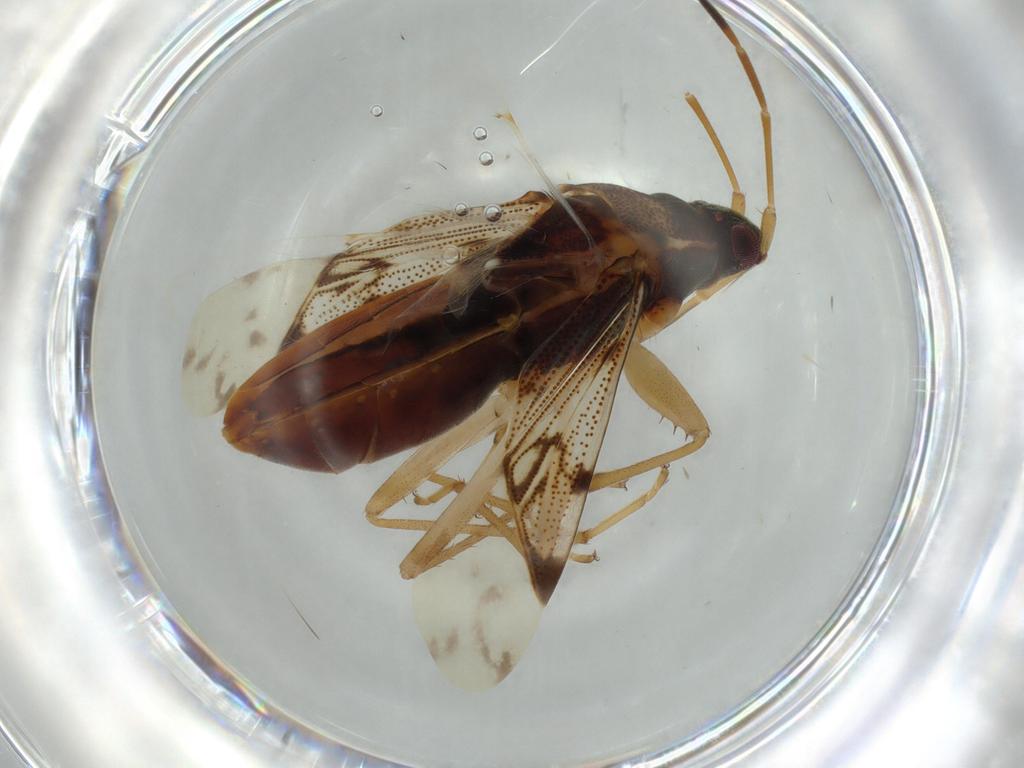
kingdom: Animalia
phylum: Arthropoda
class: Insecta
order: Hemiptera
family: Rhyparochromidae
